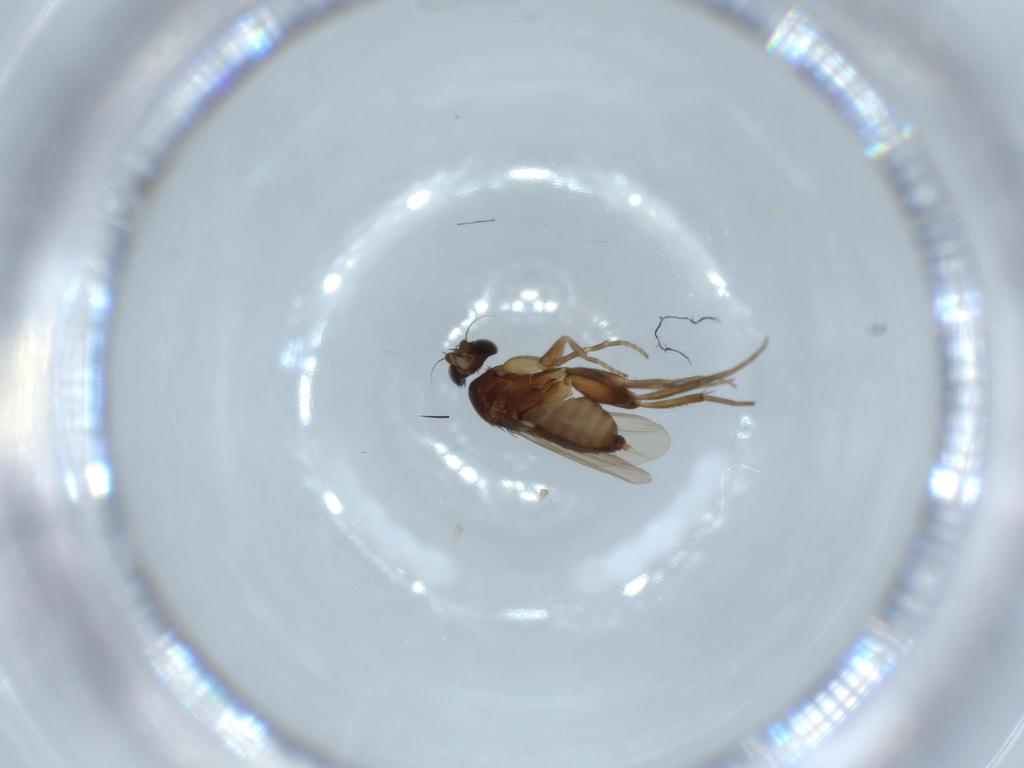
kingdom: Animalia
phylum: Arthropoda
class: Insecta
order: Diptera
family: Phoridae
